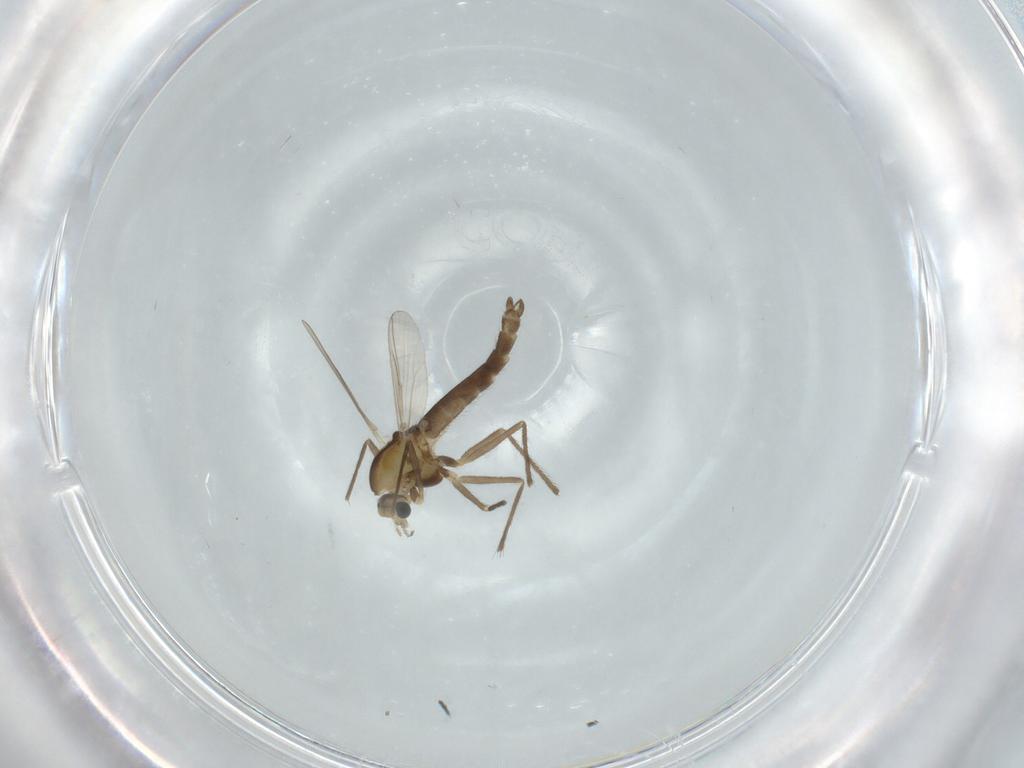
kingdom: Animalia
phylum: Arthropoda
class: Insecta
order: Diptera
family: Chironomidae
